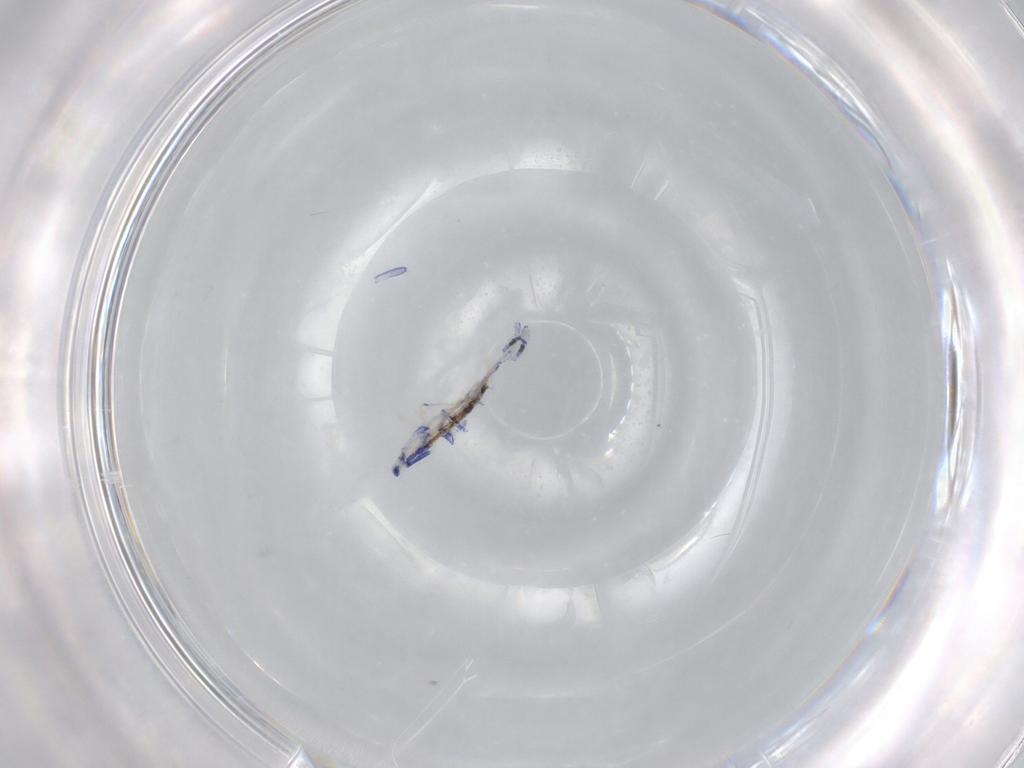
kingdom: Animalia
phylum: Arthropoda
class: Collembola
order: Entomobryomorpha
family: Entomobryidae
